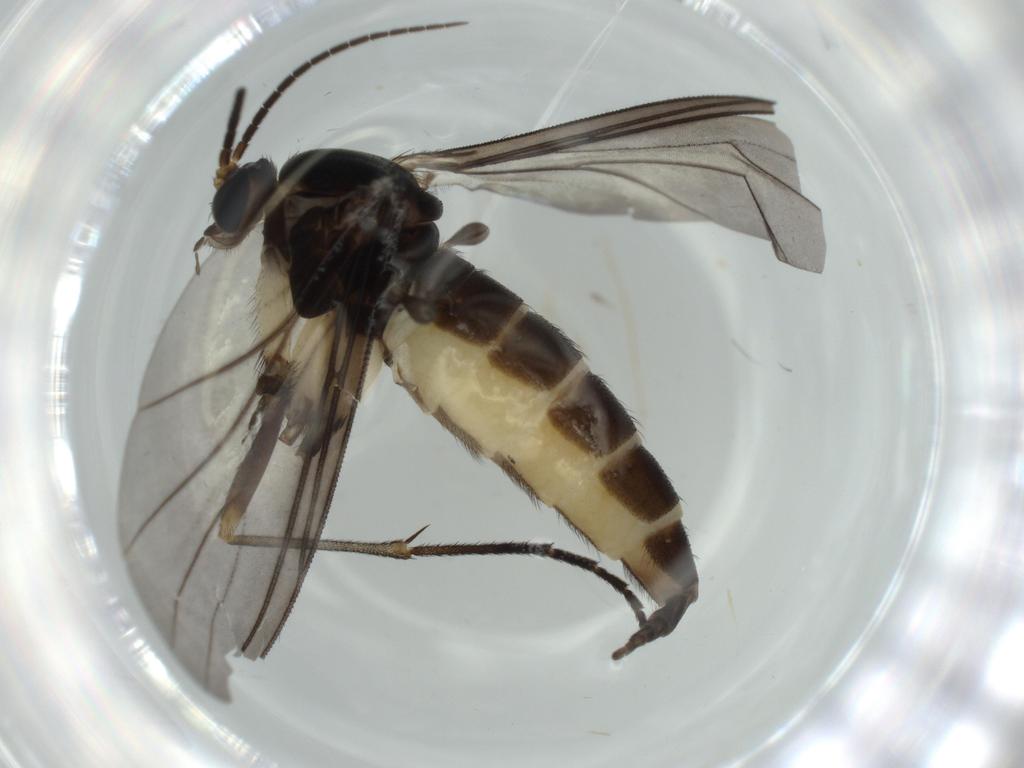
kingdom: Animalia
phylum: Arthropoda
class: Insecta
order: Diptera
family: Sciaridae
